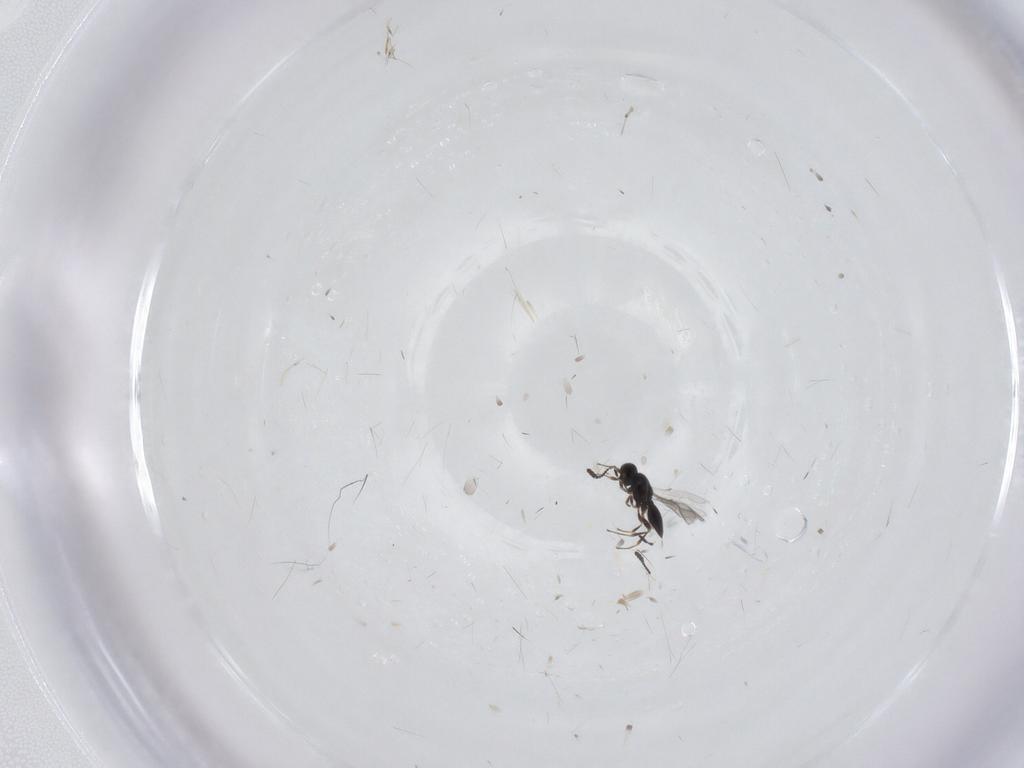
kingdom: Animalia
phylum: Arthropoda
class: Insecta
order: Hymenoptera
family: Scelionidae
